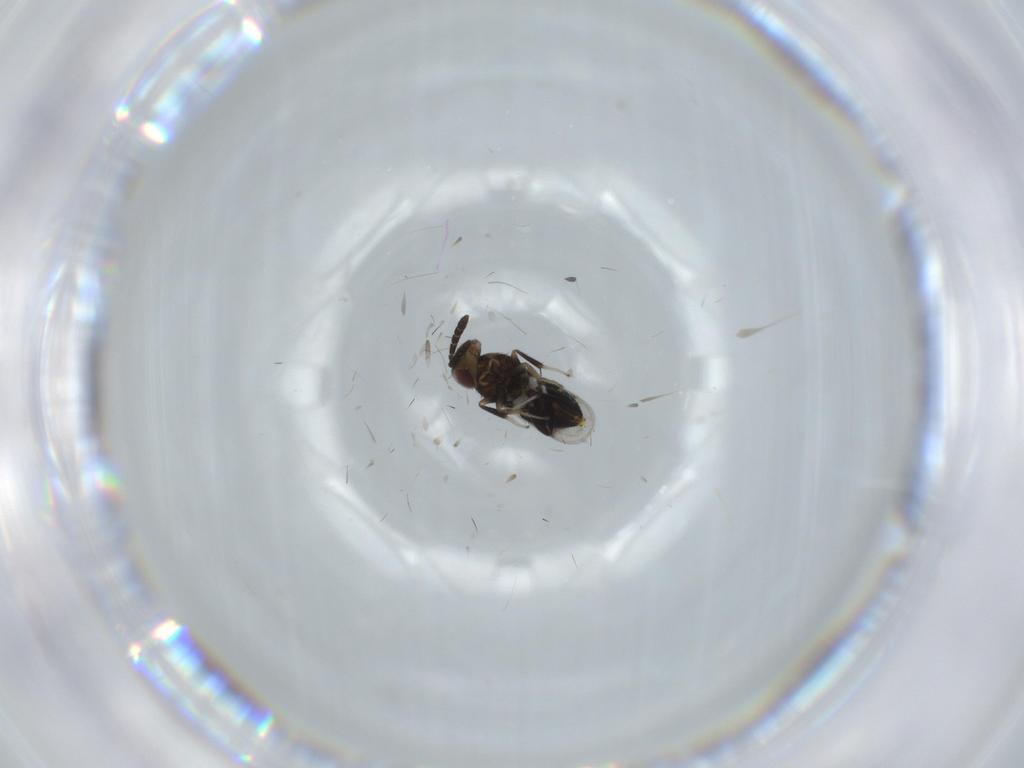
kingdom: Animalia
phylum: Arthropoda
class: Insecta
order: Hymenoptera
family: Aphelinidae
